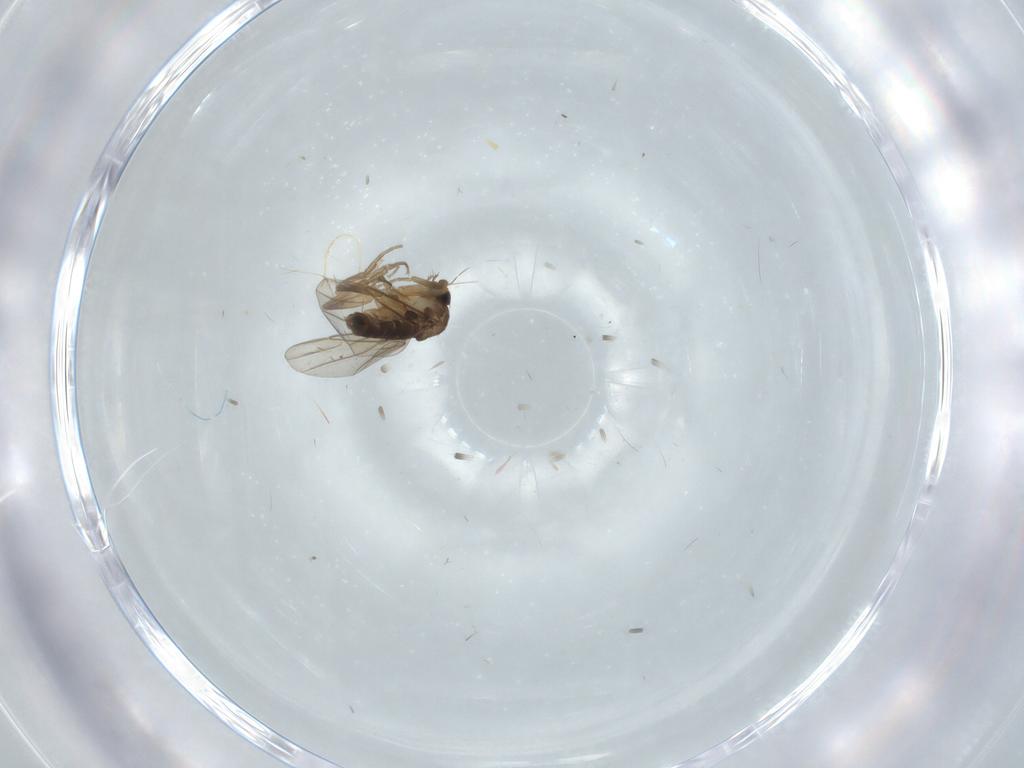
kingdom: Animalia
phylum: Arthropoda
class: Insecta
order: Diptera
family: Phoridae
